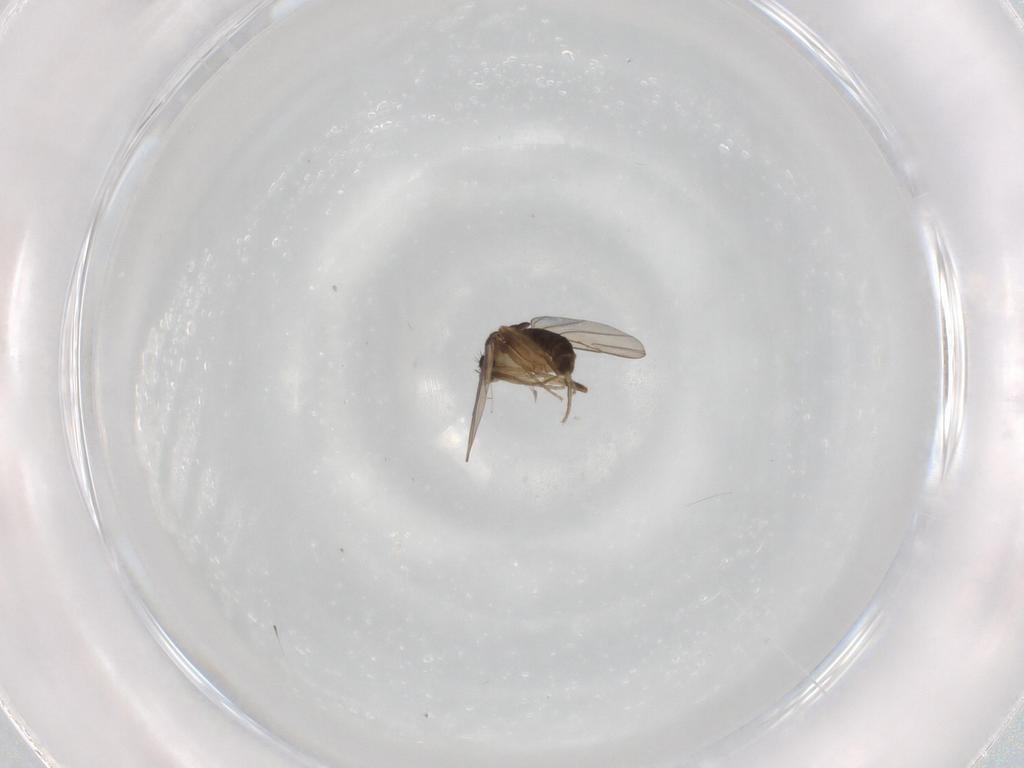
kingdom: Animalia
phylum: Arthropoda
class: Insecta
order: Diptera
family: Phoridae
